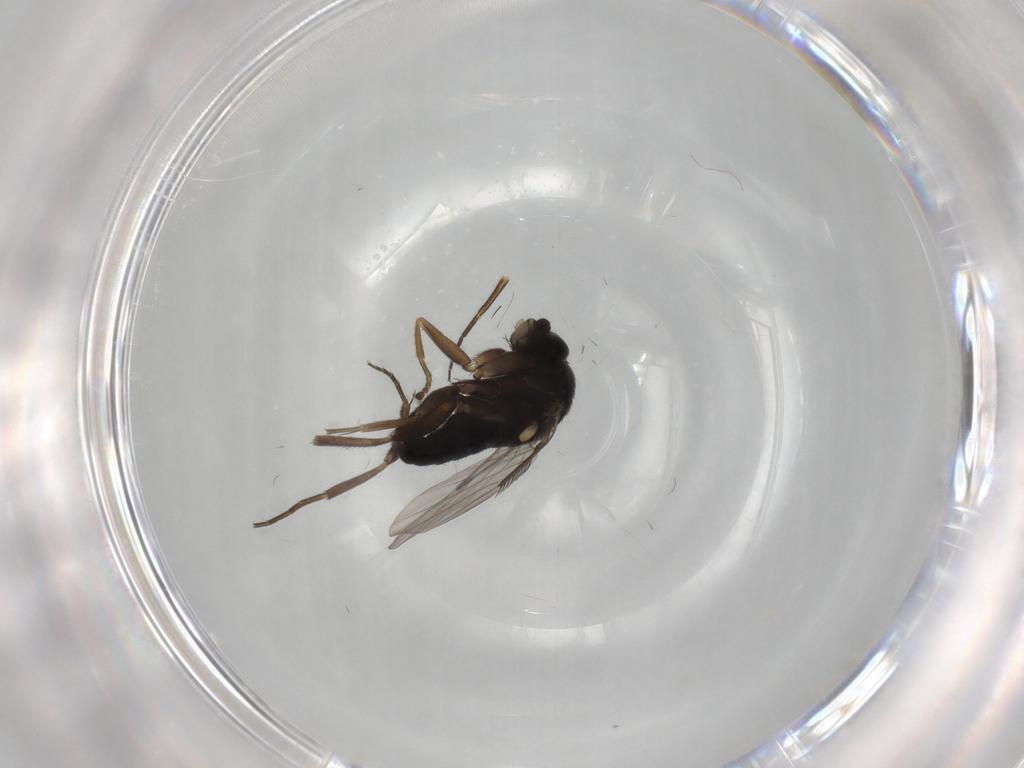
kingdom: Animalia
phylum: Arthropoda
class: Insecta
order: Diptera
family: Phoridae
